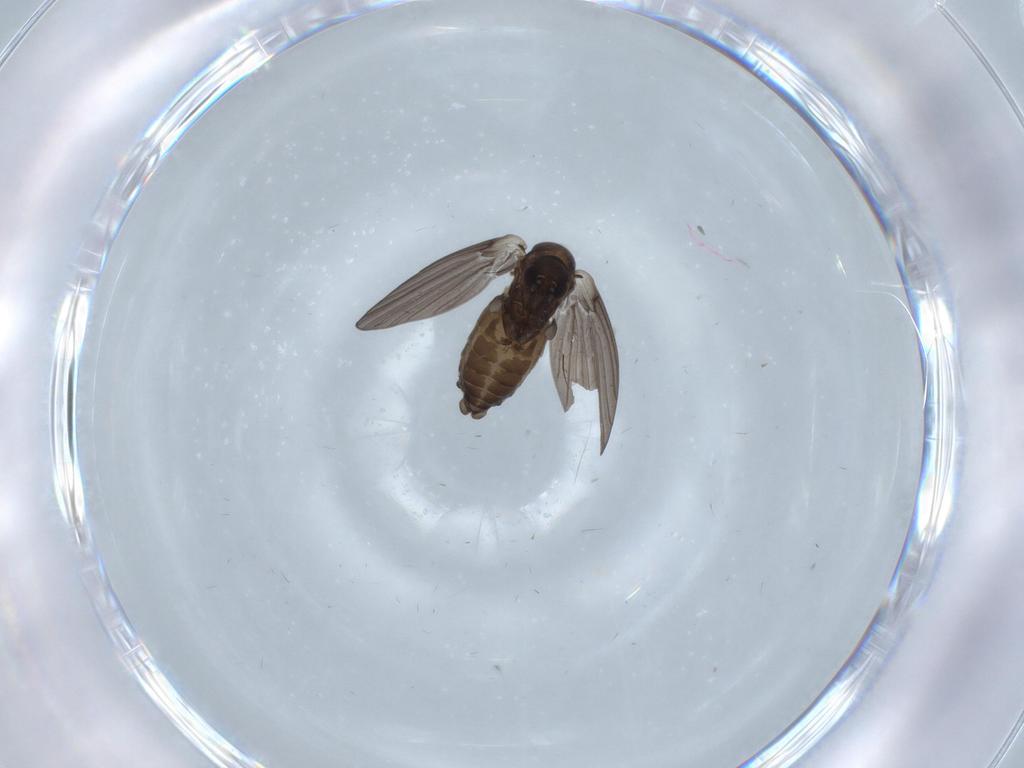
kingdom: Animalia
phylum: Arthropoda
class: Insecta
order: Diptera
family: Psychodidae
